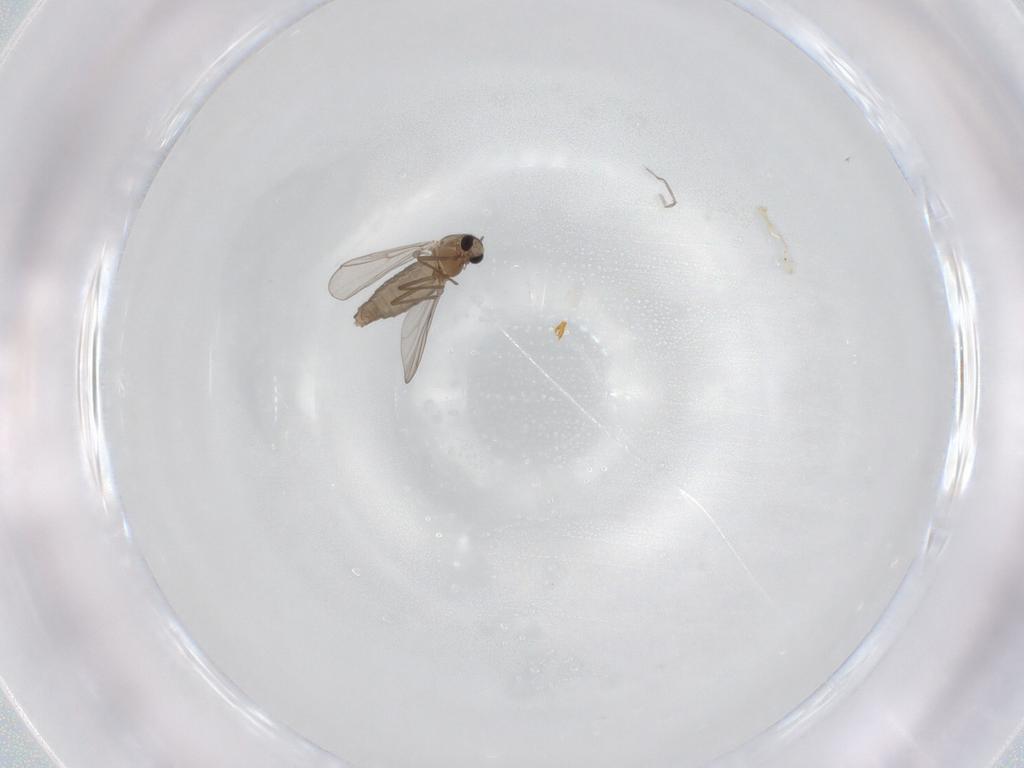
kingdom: Animalia
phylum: Arthropoda
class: Insecta
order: Diptera
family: Chironomidae
